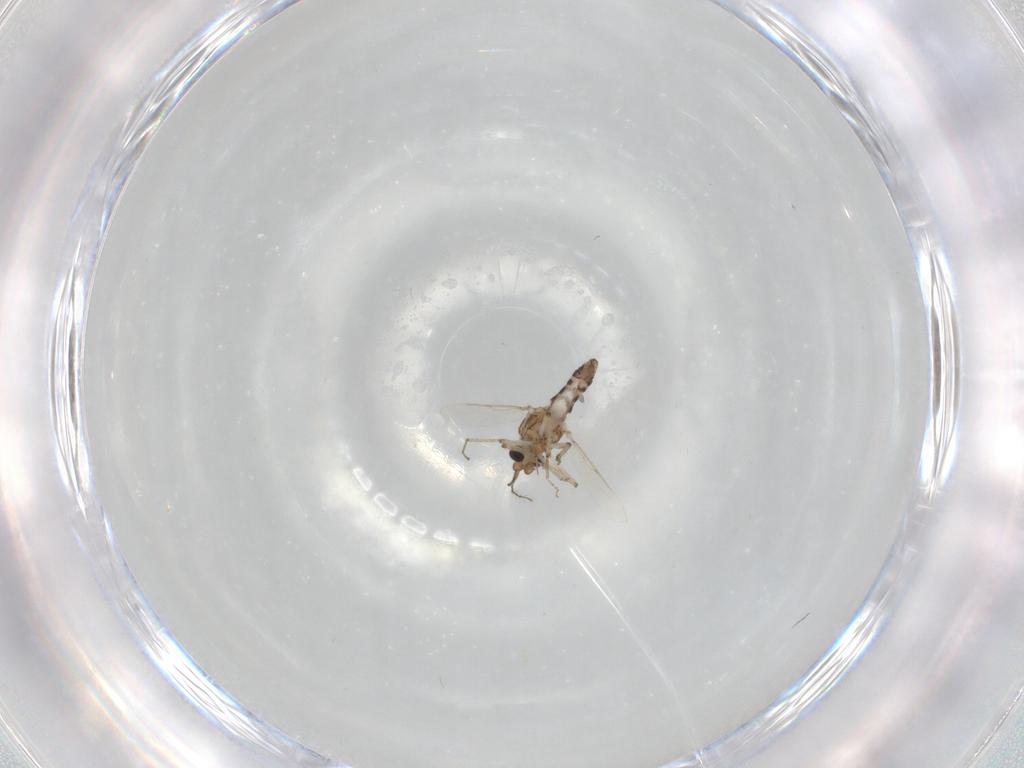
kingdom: Animalia
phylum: Arthropoda
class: Insecta
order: Diptera
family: Ceratopogonidae
